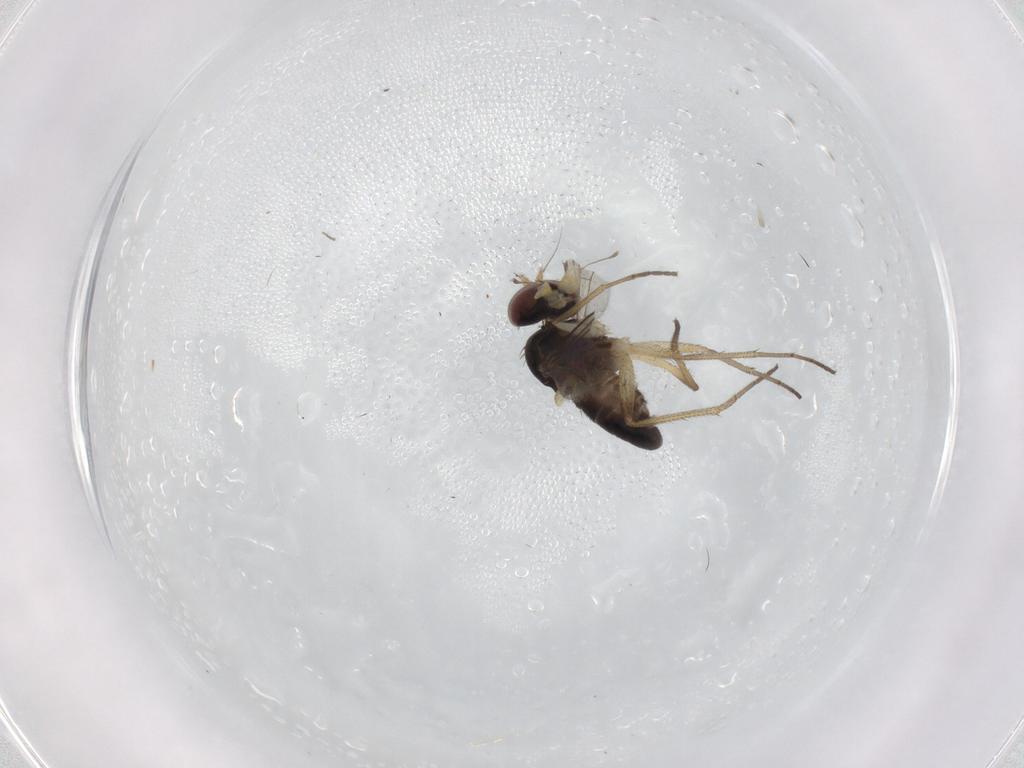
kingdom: Animalia
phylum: Arthropoda
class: Insecta
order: Diptera
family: Dolichopodidae
